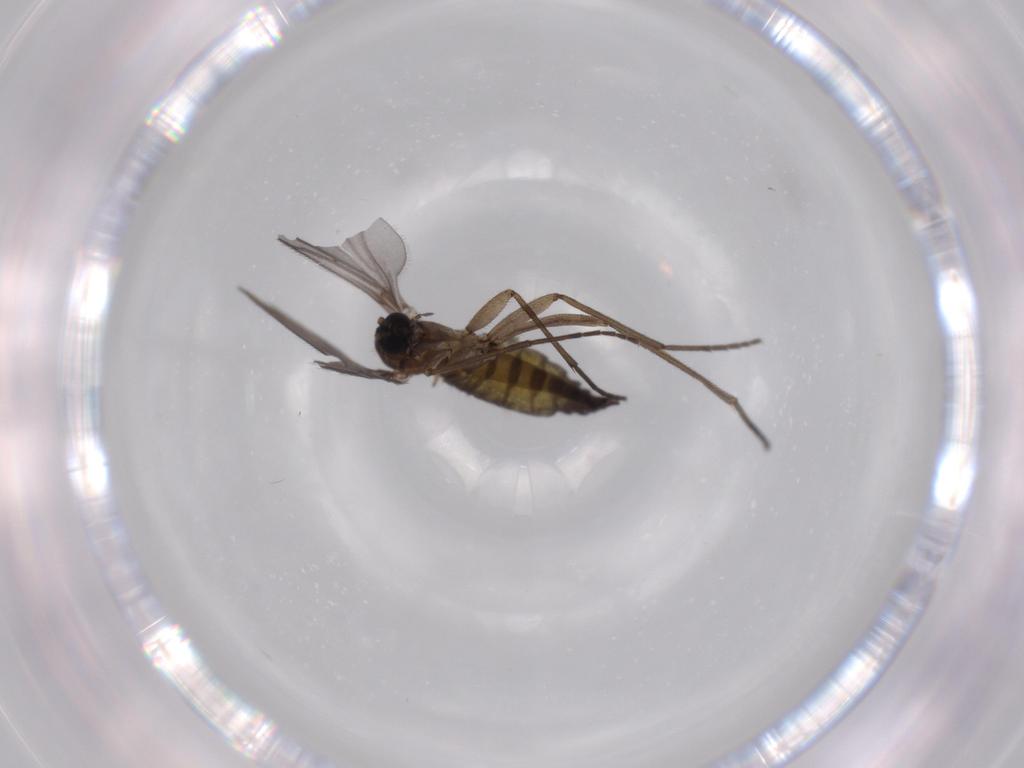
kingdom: Animalia
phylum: Arthropoda
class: Insecta
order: Diptera
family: Sciaridae
